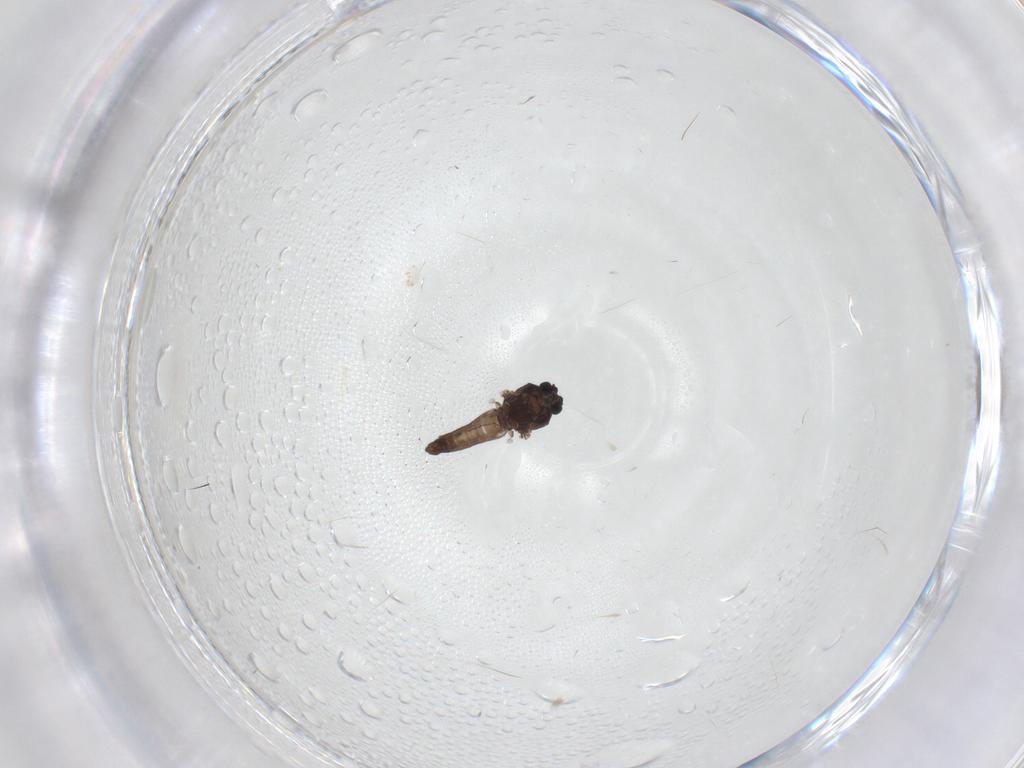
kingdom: Animalia
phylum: Arthropoda
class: Insecta
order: Diptera
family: Ceratopogonidae
